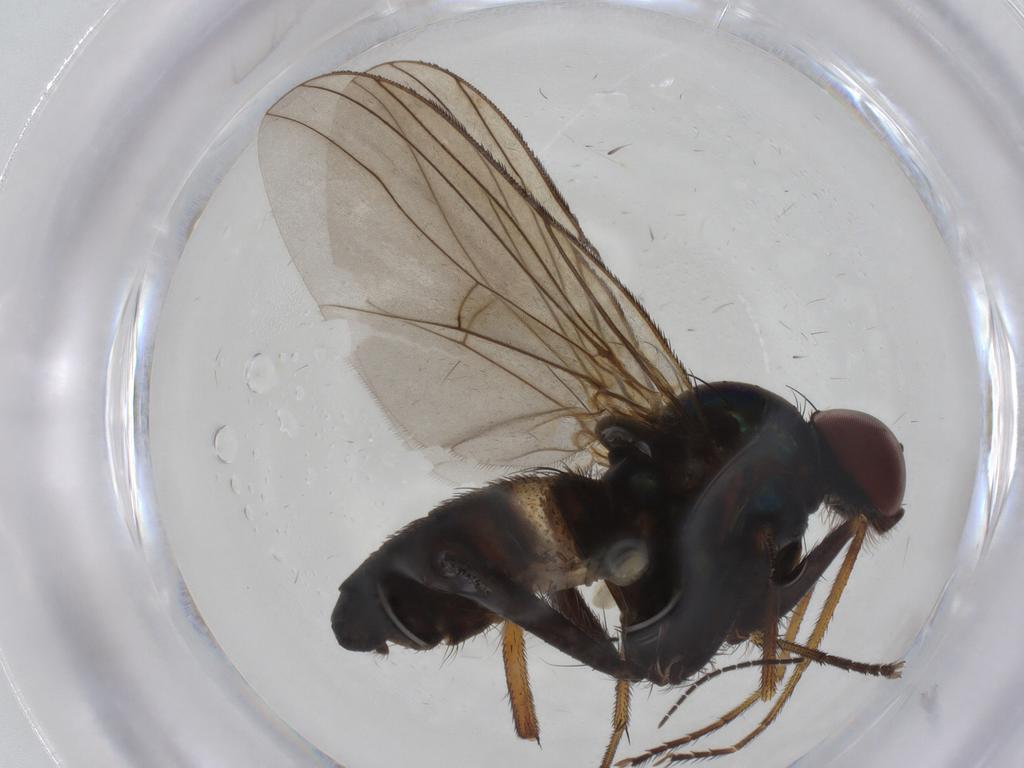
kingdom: Animalia
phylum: Arthropoda
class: Insecta
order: Diptera
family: Dolichopodidae
